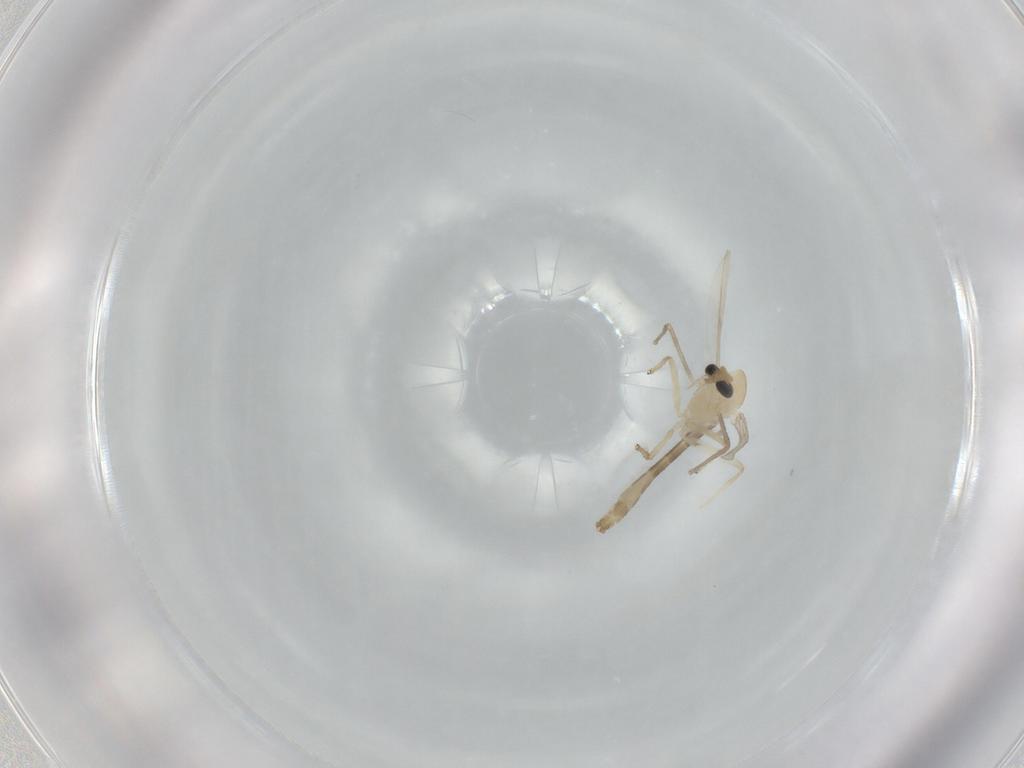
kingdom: Animalia
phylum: Arthropoda
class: Insecta
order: Diptera
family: Chironomidae
